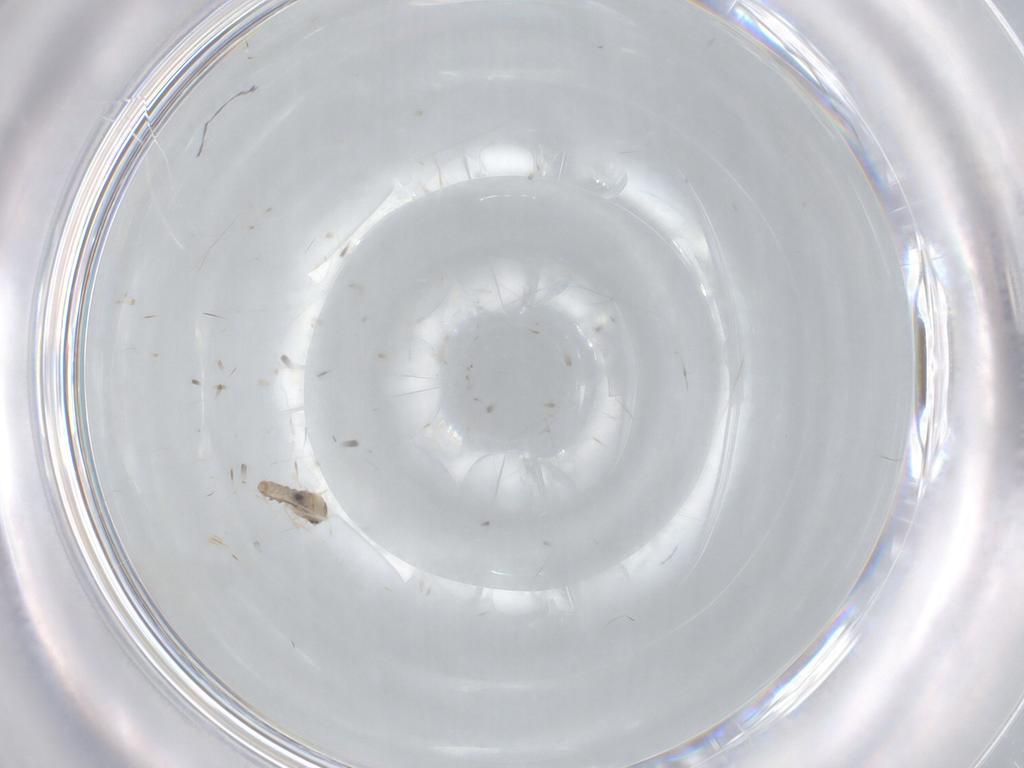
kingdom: Animalia
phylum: Arthropoda
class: Insecta
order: Diptera
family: Cecidomyiidae
